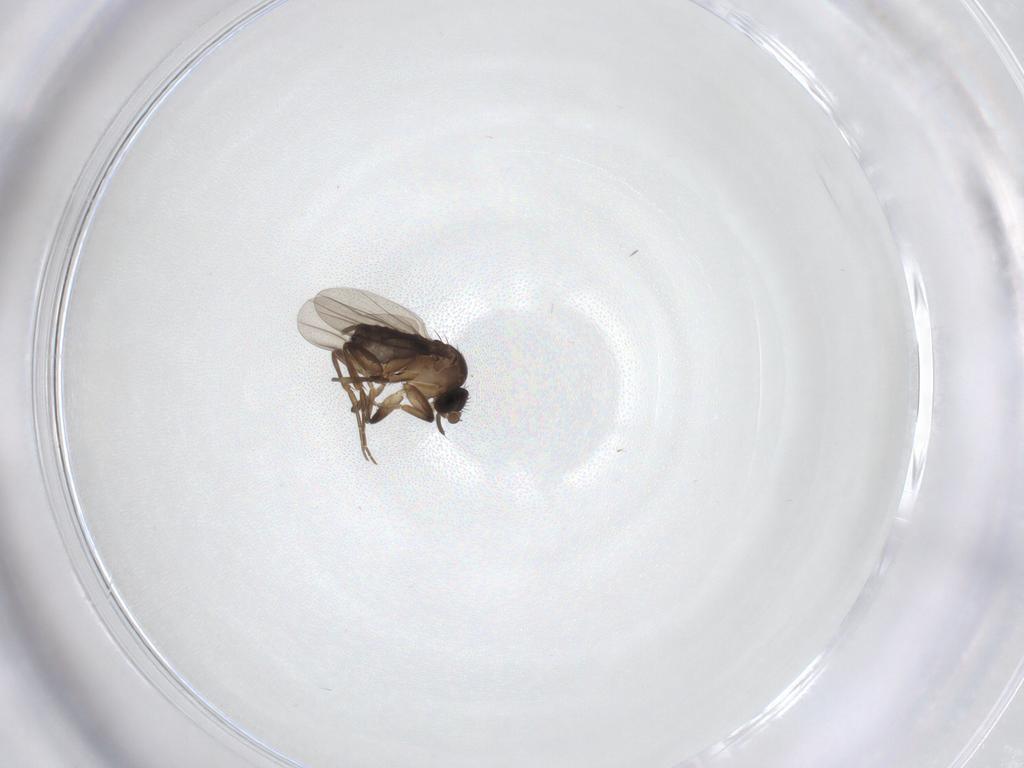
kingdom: Animalia
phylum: Arthropoda
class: Insecta
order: Diptera
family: Phoridae
